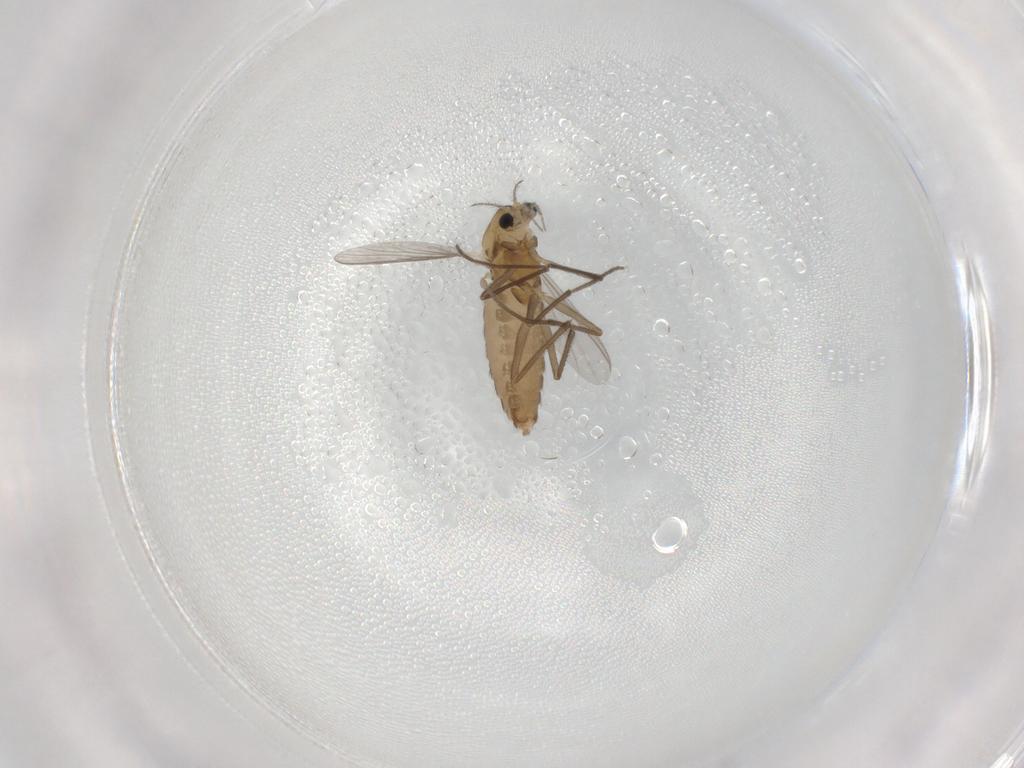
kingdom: Animalia
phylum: Arthropoda
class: Insecta
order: Diptera
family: Chironomidae
